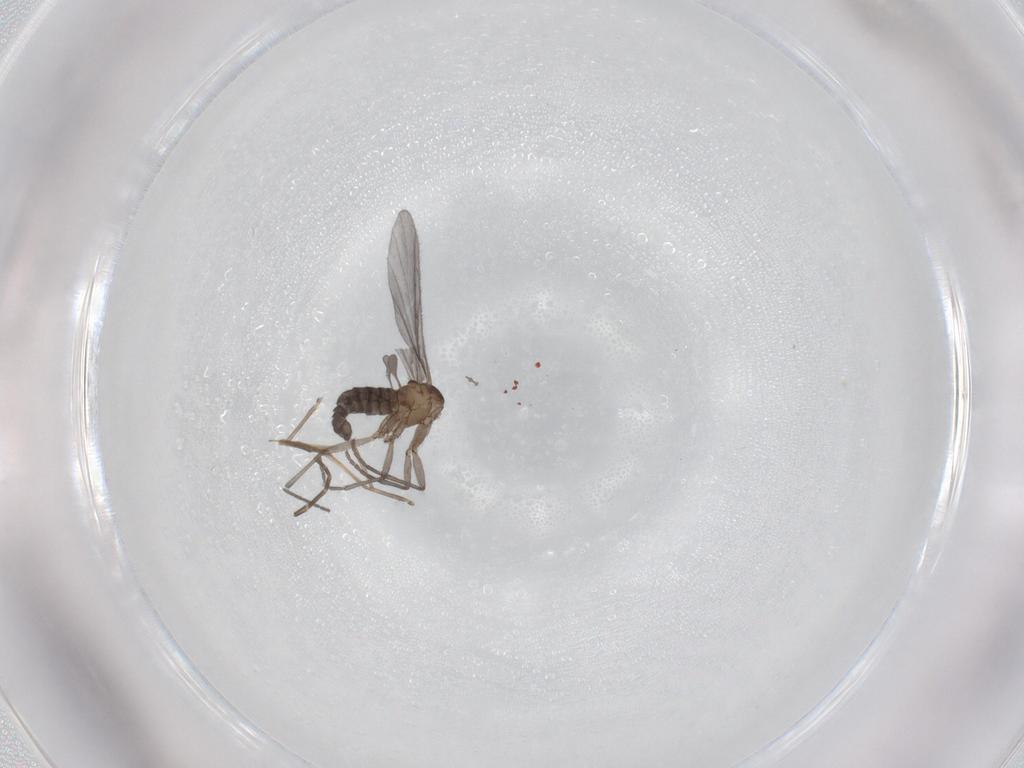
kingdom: Animalia
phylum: Arthropoda
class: Insecta
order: Diptera
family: Sciaridae
